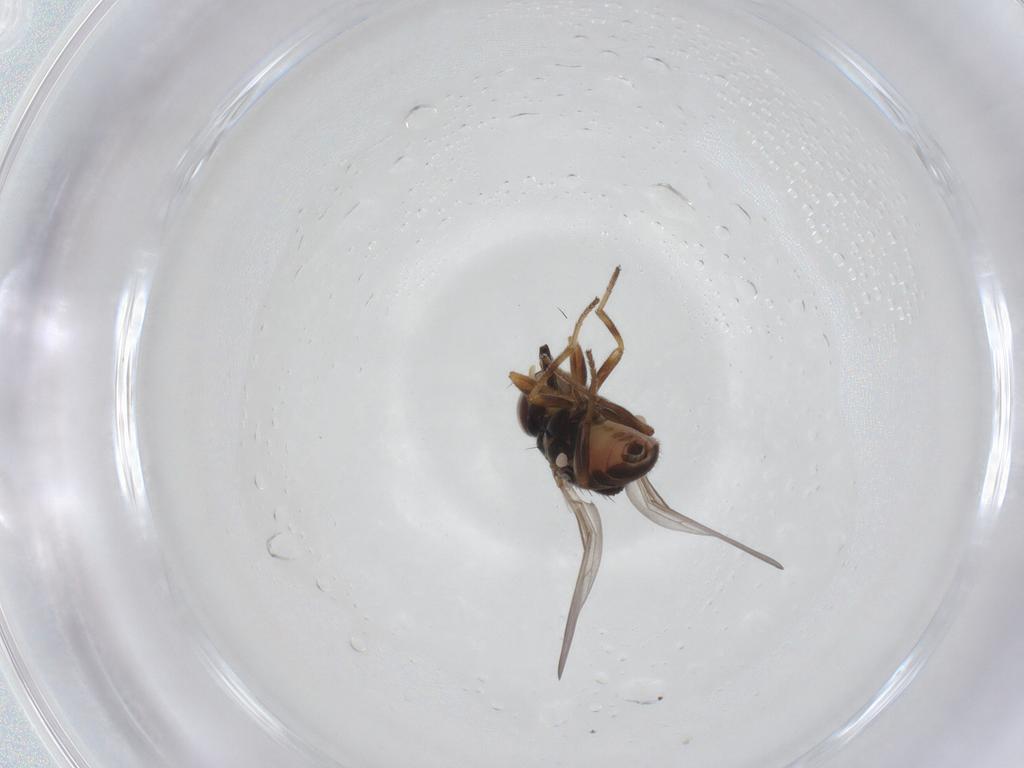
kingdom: Animalia
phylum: Arthropoda
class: Insecta
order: Diptera
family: Chloropidae
